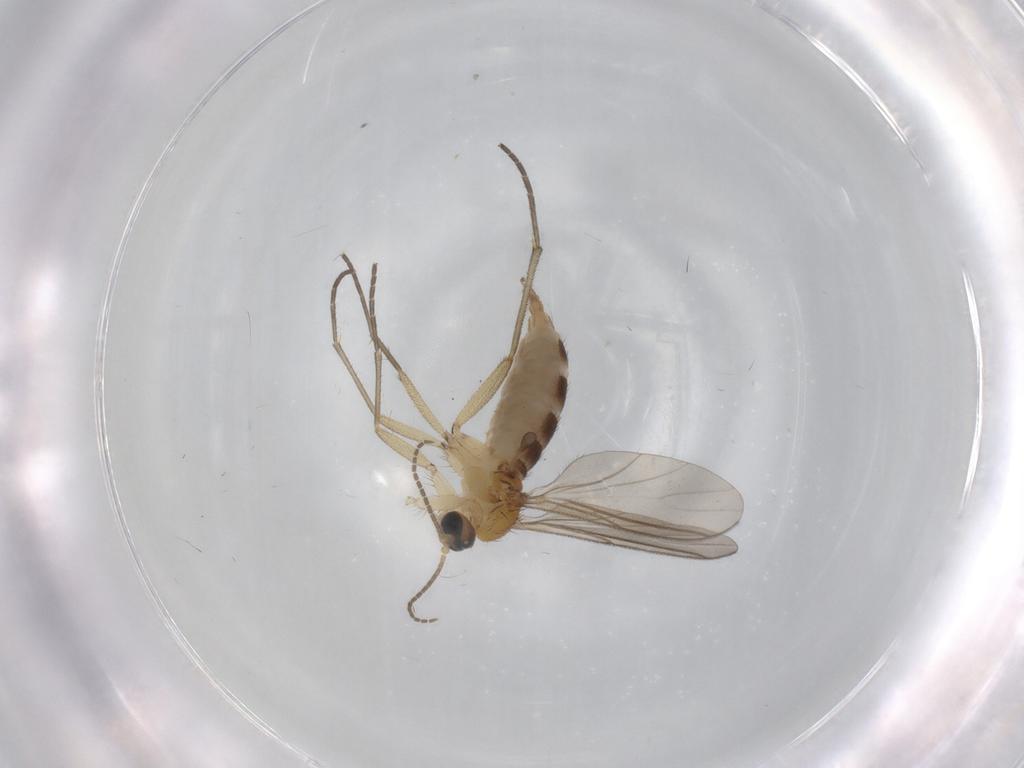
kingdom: Animalia
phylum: Arthropoda
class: Insecta
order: Diptera
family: Sciaridae
